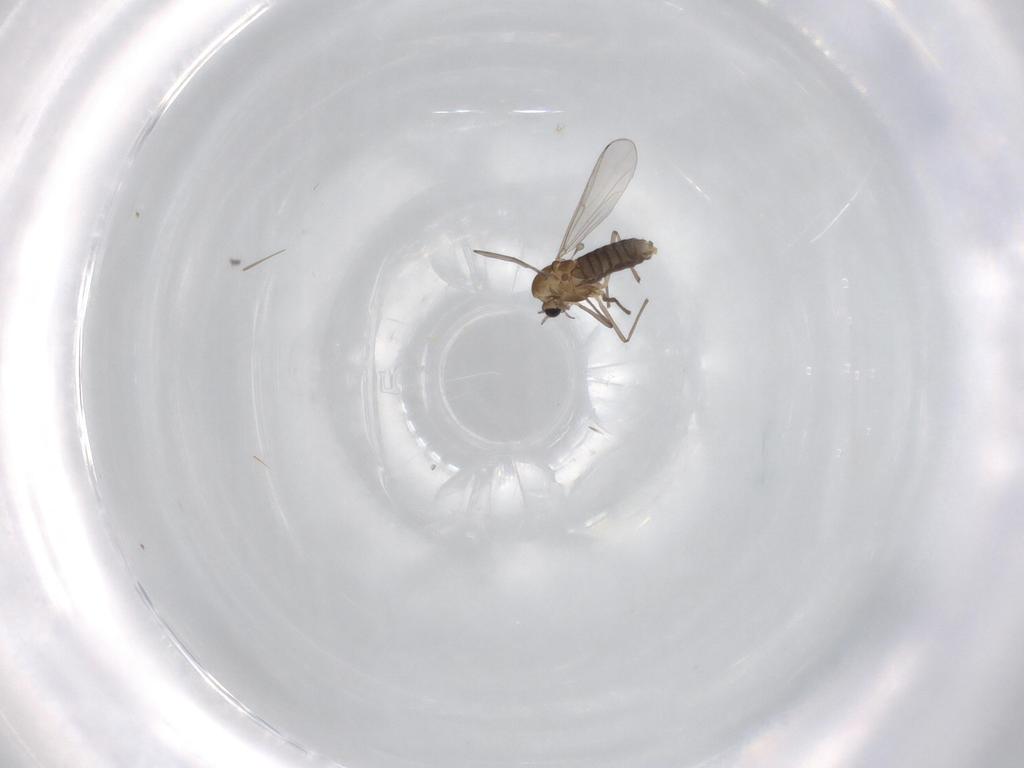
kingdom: Animalia
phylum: Arthropoda
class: Insecta
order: Diptera
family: Chironomidae
